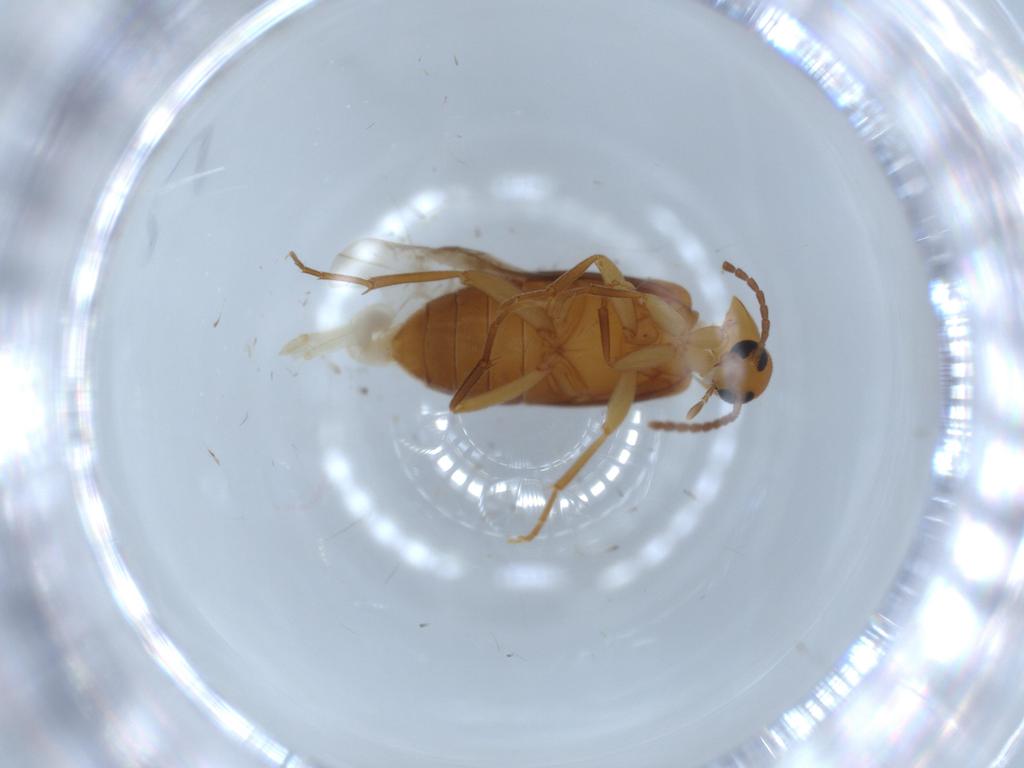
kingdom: Animalia
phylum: Arthropoda
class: Insecta
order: Coleoptera
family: Scraptiidae
